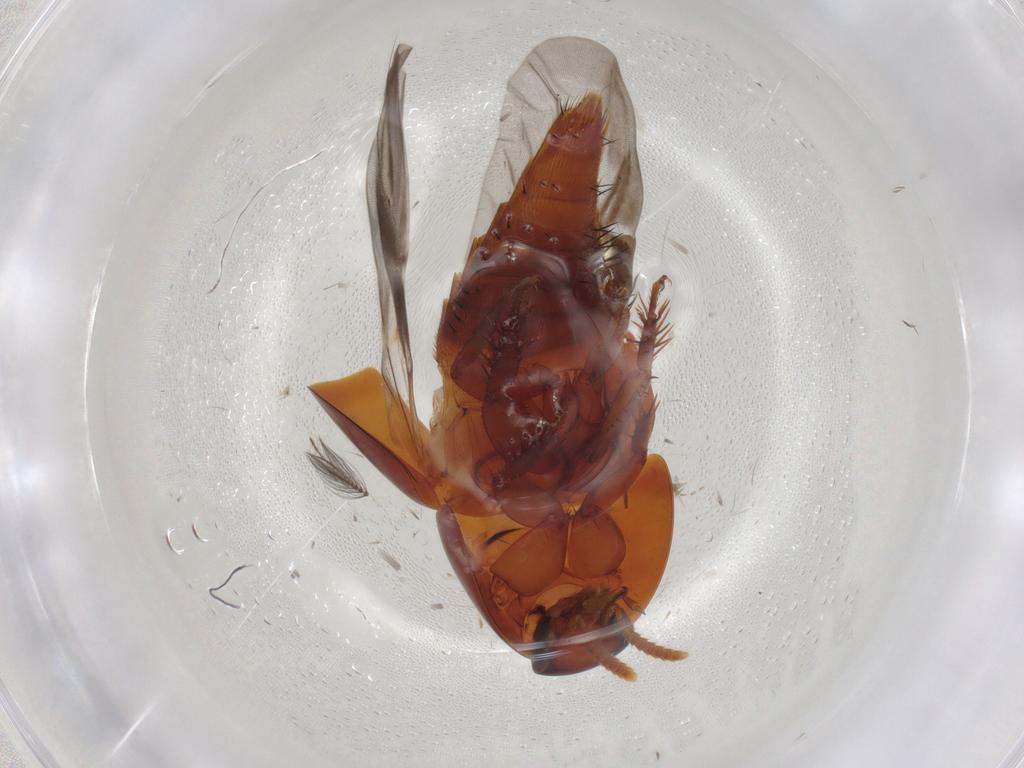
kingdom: Animalia
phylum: Arthropoda
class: Insecta
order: Coleoptera
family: Staphylinidae
